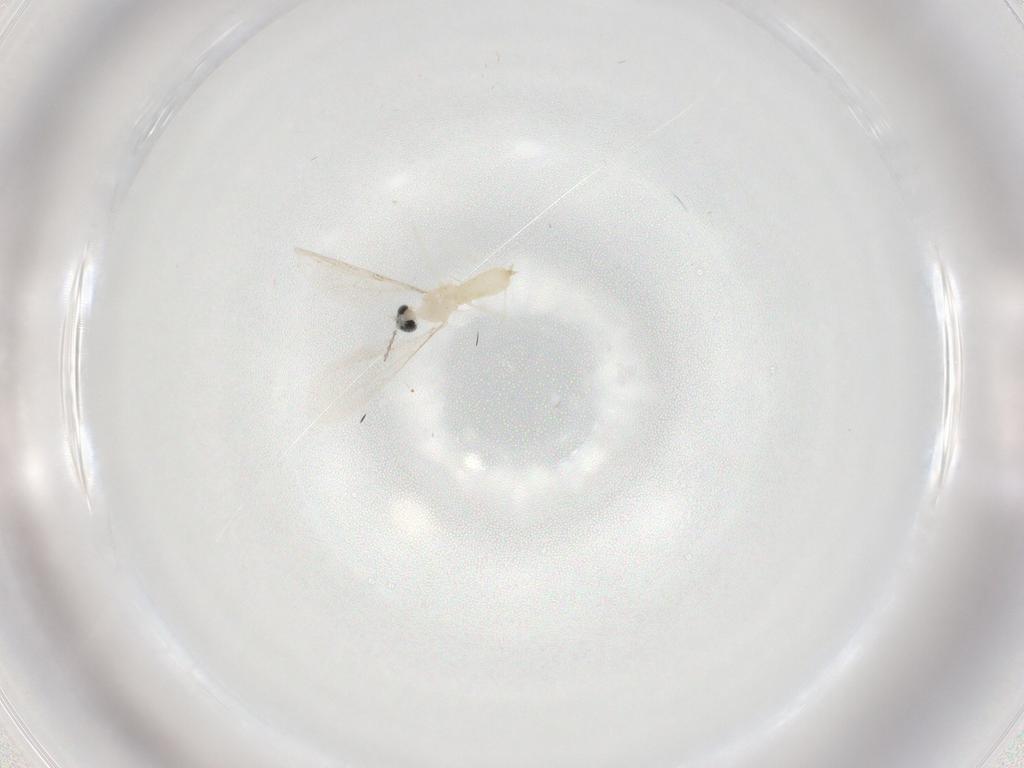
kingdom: Animalia
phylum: Arthropoda
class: Insecta
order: Diptera
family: Cecidomyiidae
